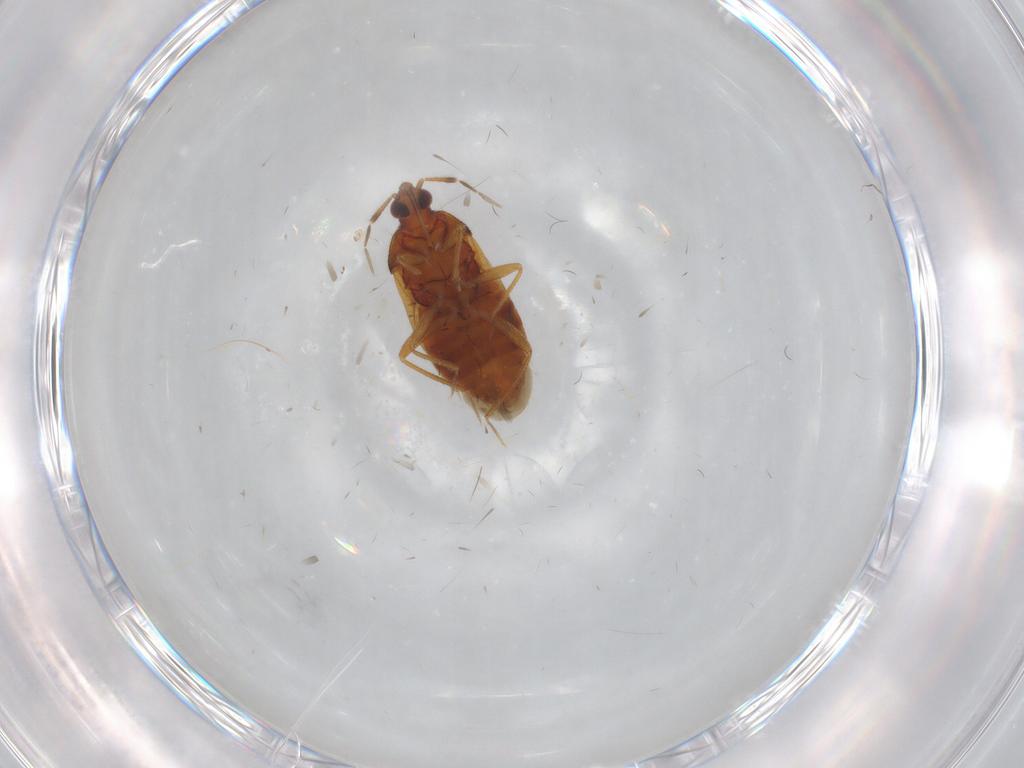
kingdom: Animalia
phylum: Arthropoda
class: Insecta
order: Hemiptera
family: Anthocoridae
